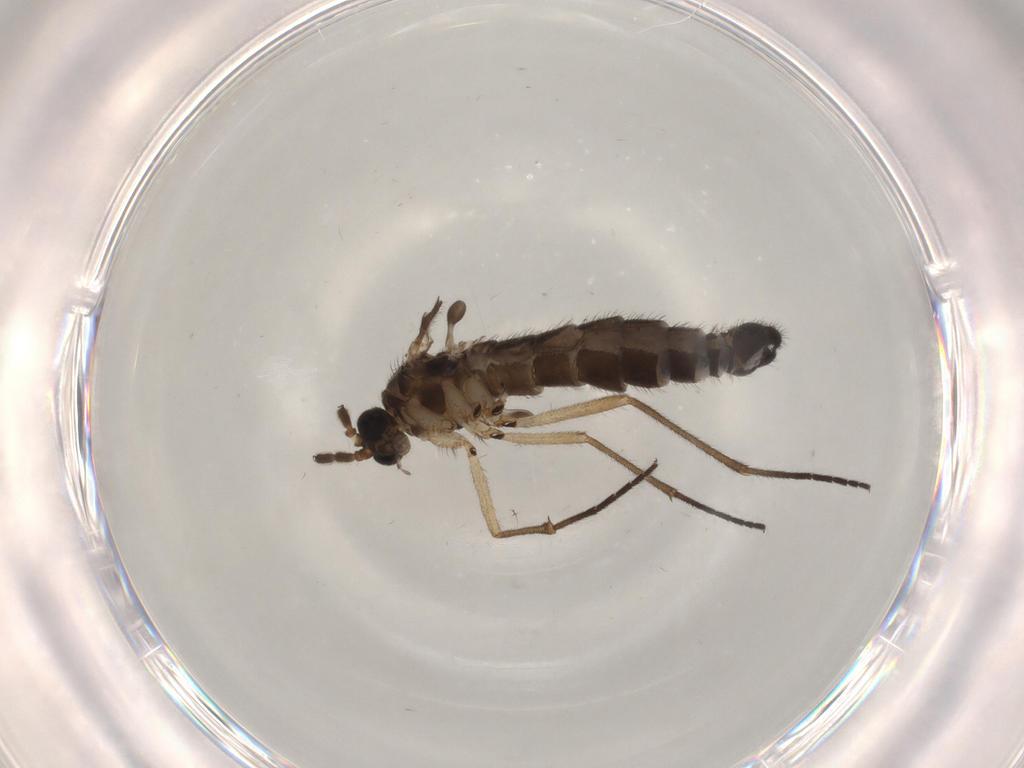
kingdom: Animalia
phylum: Arthropoda
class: Insecta
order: Diptera
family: Sciaridae
